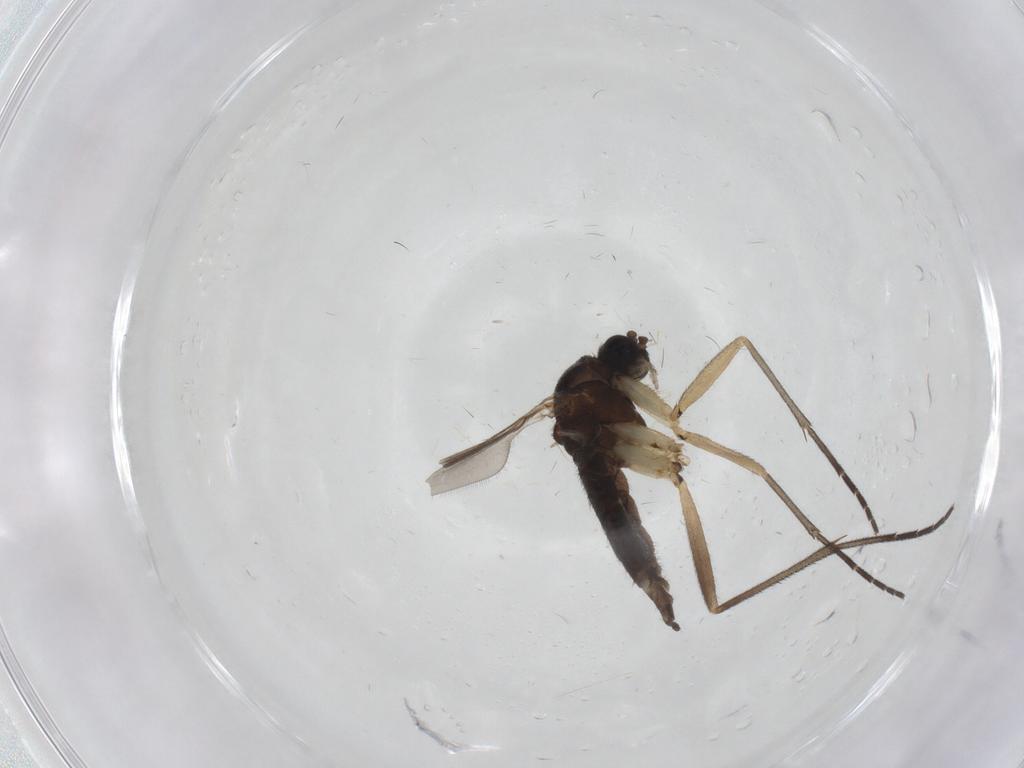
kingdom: Animalia
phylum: Arthropoda
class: Insecta
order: Diptera
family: Sciaridae
